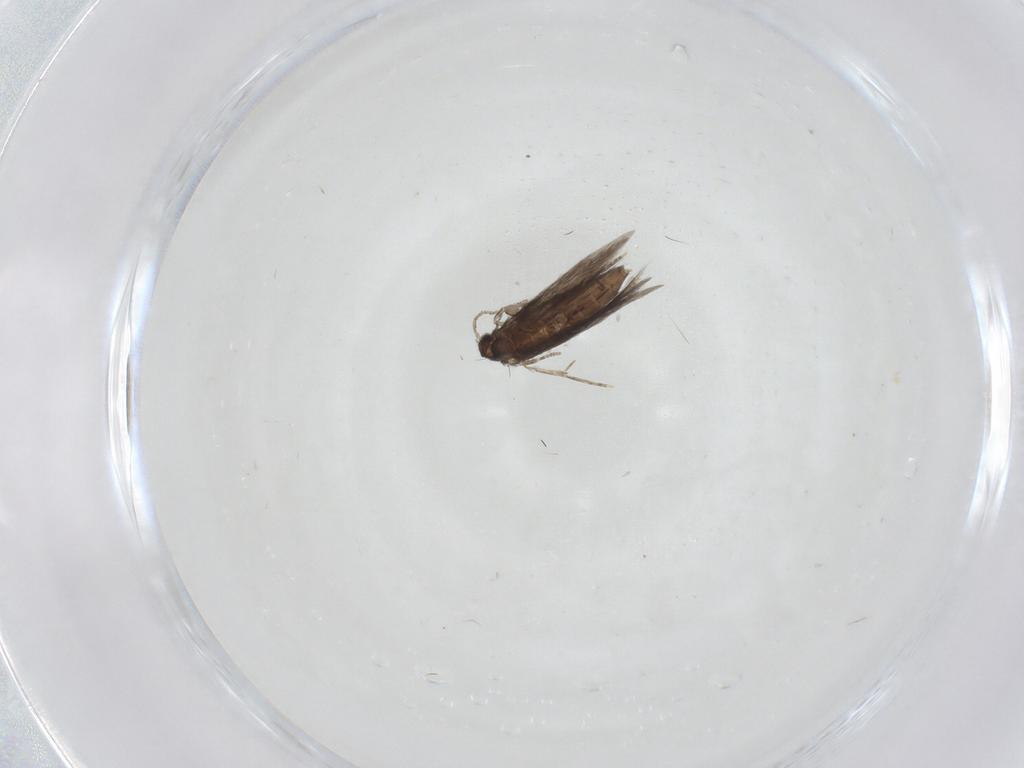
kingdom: Animalia
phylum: Arthropoda
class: Insecta
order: Trichoptera
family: Hydroptilidae
